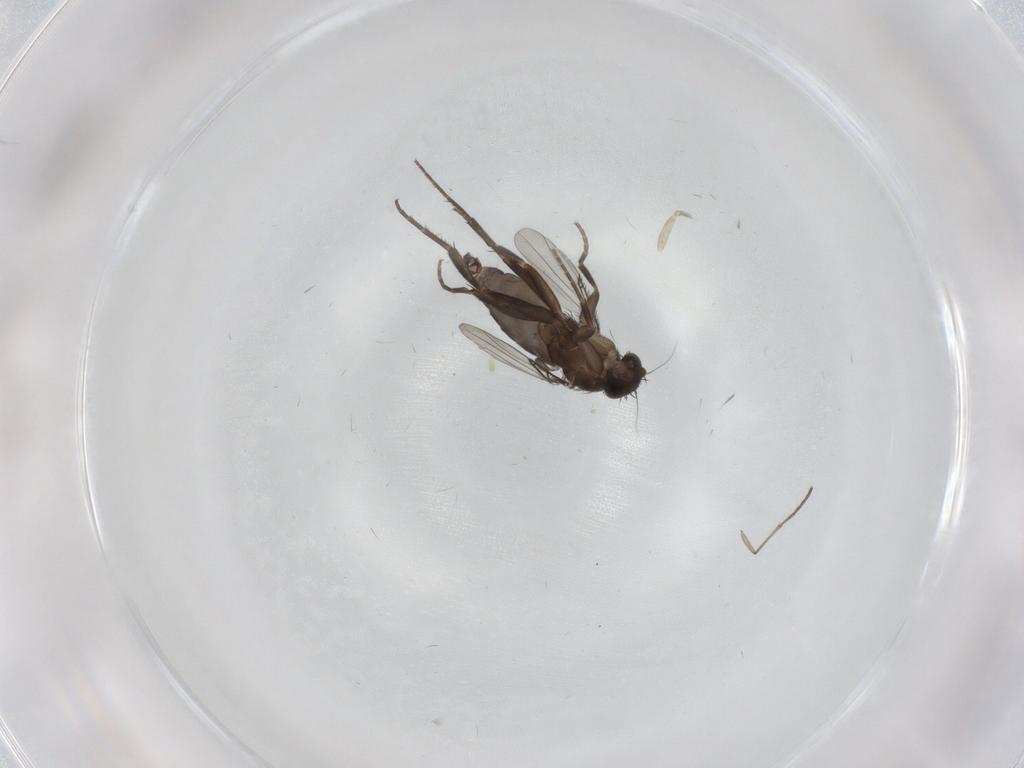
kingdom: Animalia
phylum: Arthropoda
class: Insecta
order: Diptera
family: Phoridae
